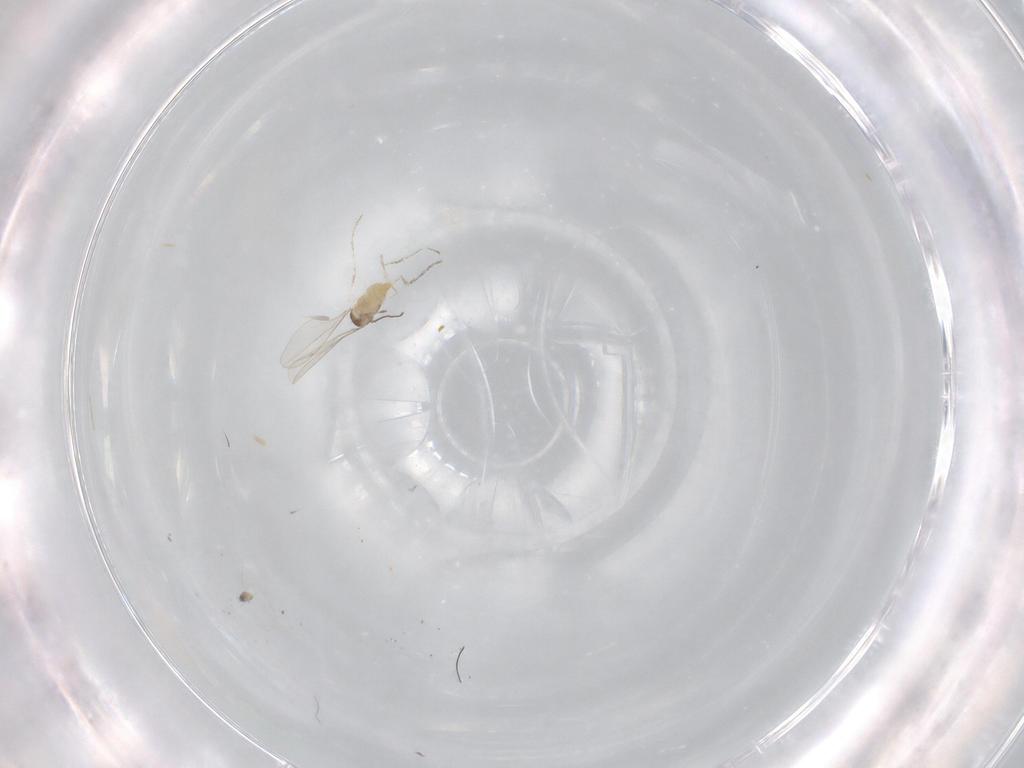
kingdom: Animalia
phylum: Arthropoda
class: Insecta
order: Diptera
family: Cecidomyiidae
